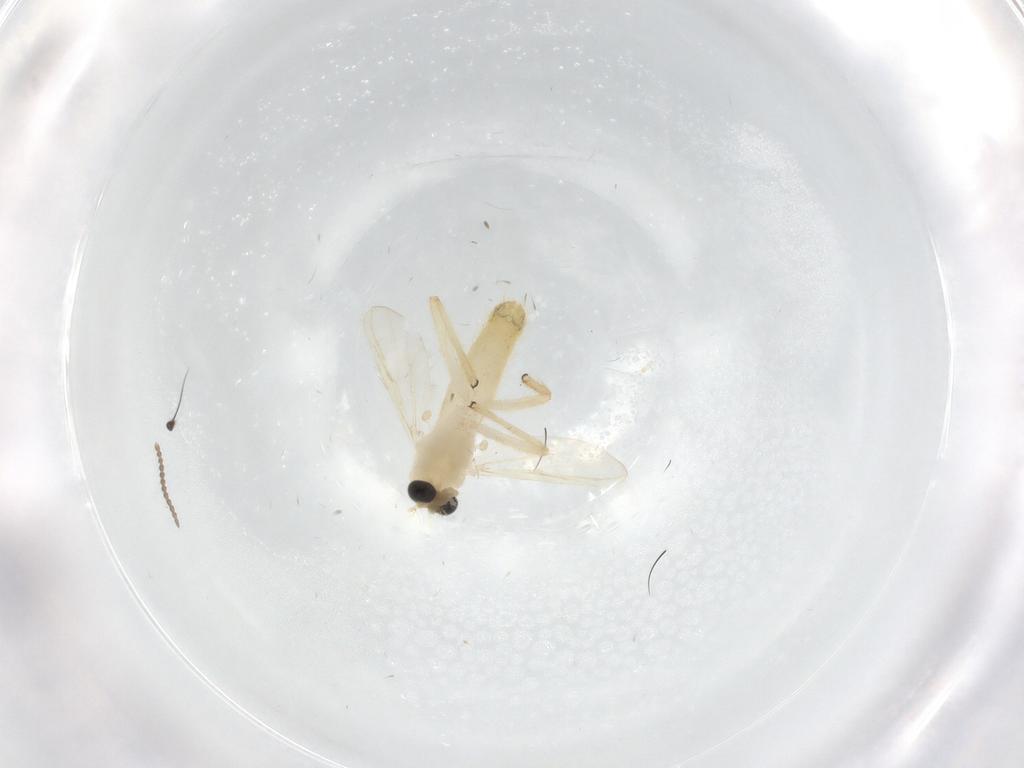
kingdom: Animalia
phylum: Arthropoda
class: Insecta
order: Diptera
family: Chironomidae
